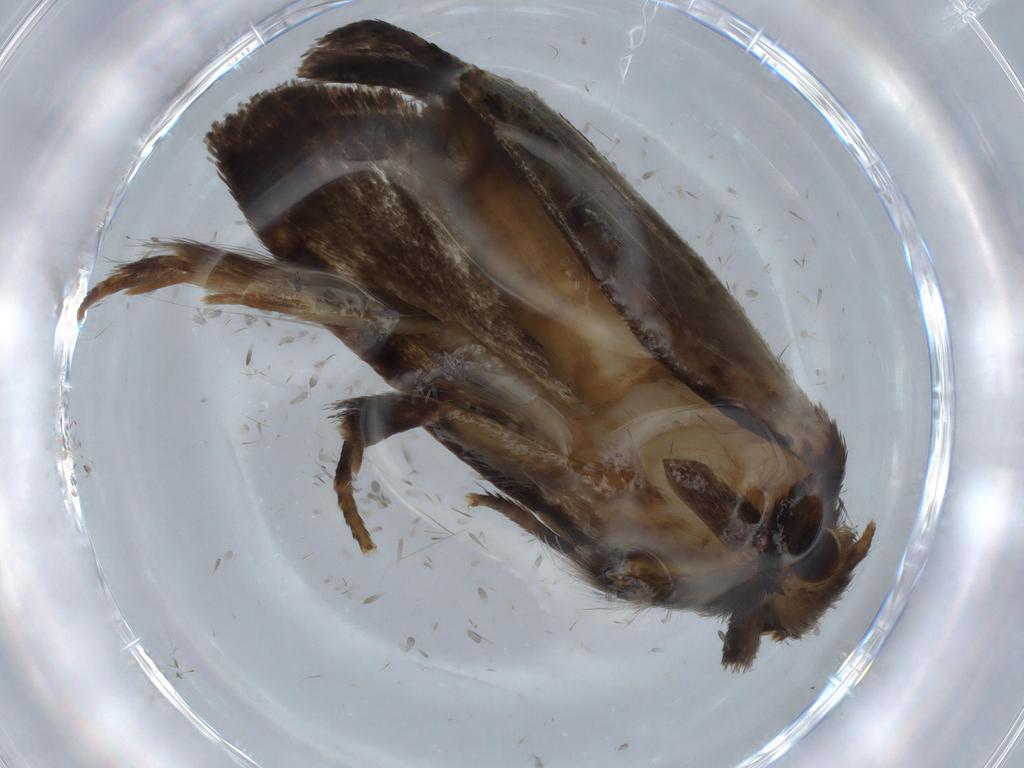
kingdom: Animalia
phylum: Arthropoda
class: Insecta
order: Lepidoptera
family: Tineidae
